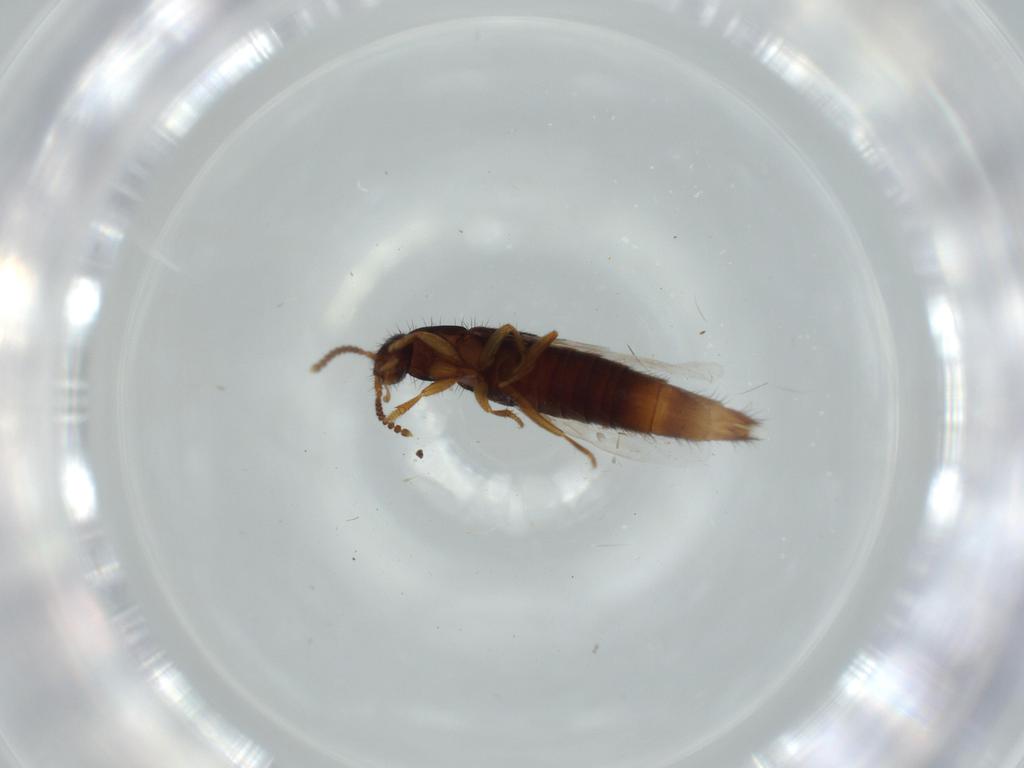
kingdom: Animalia
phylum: Arthropoda
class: Insecta
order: Coleoptera
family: Staphylinidae
